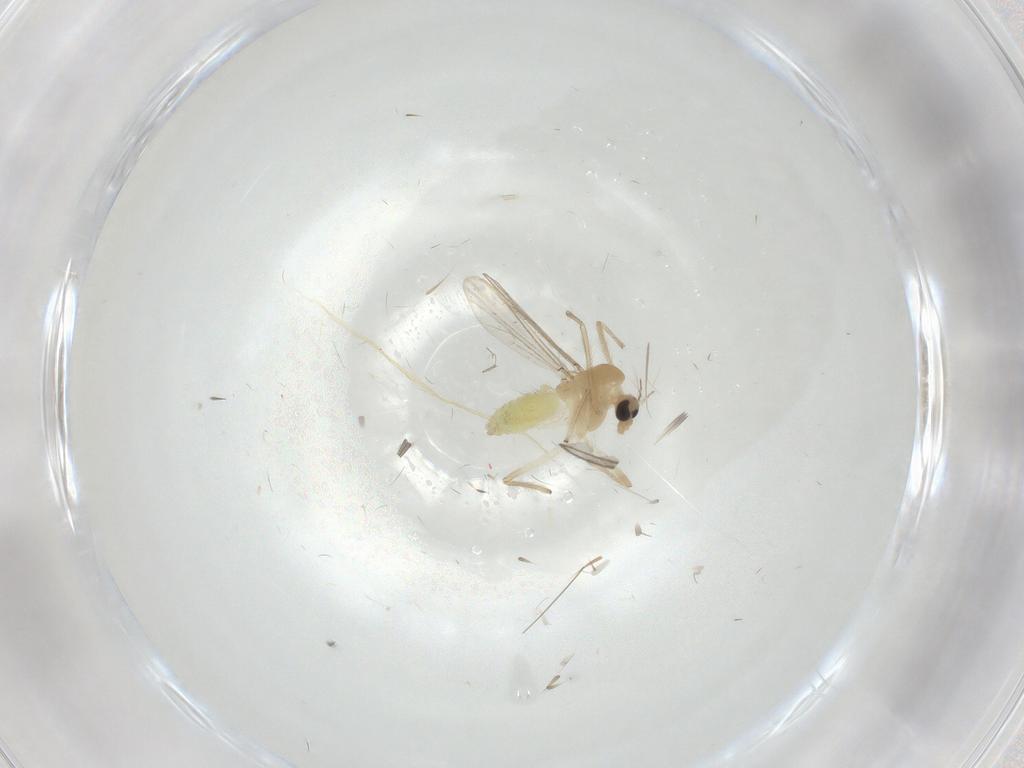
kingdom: Animalia
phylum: Arthropoda
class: Insecta
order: Diptera
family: Chironomidae
